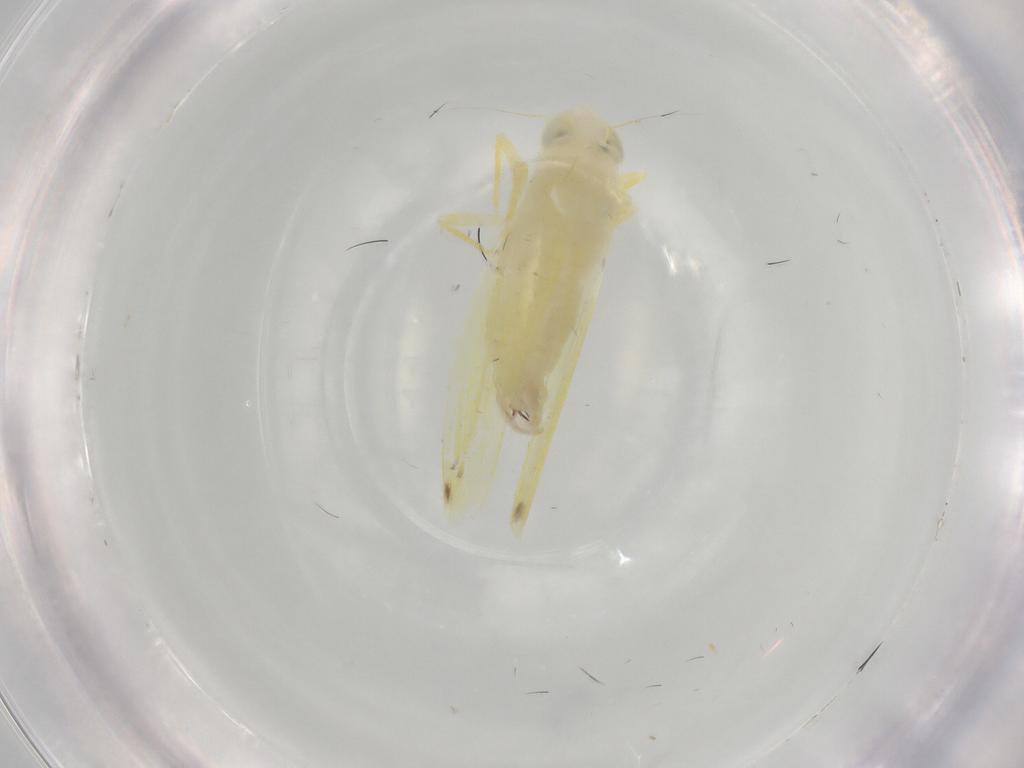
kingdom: Animalia
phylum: Arthropoda
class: Insecta
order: Hemiptera
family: Cicadellidae
